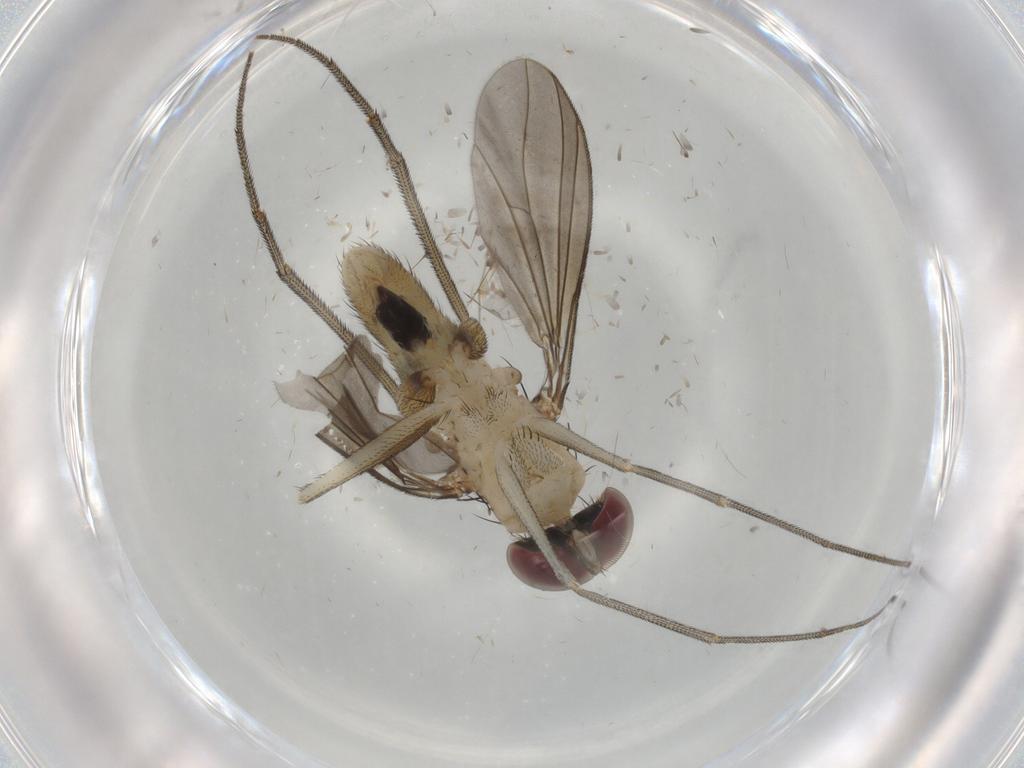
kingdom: Animalia
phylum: Arthropoda
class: Insecta
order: Diptera
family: Dolichopodidae
